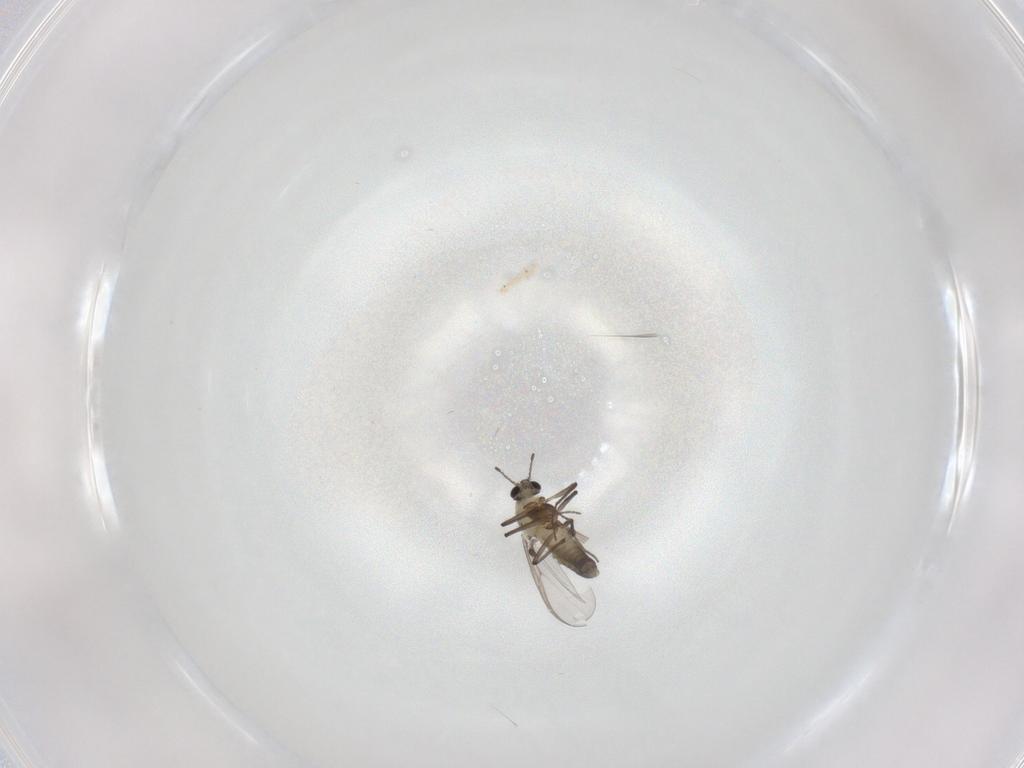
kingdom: Animalia
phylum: Arthropoda
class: Insecta
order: Diptera
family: Chironomidae
